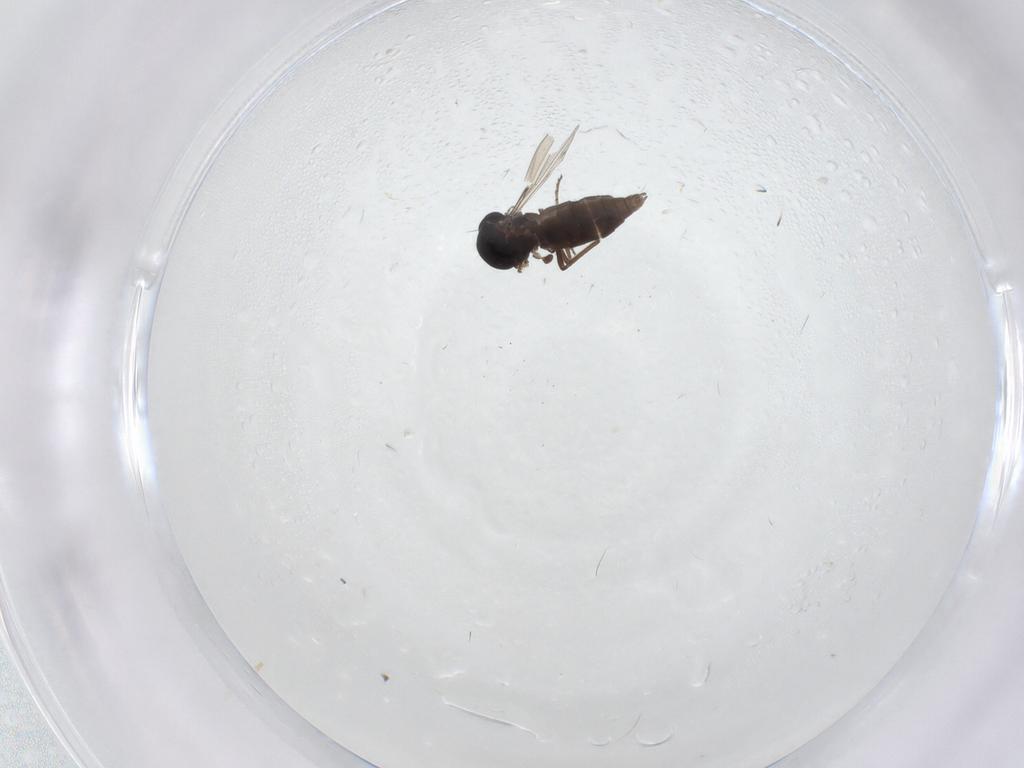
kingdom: Animalia
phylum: Arthropoda
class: Insecta
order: Diptera
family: Ceratopogonidae
